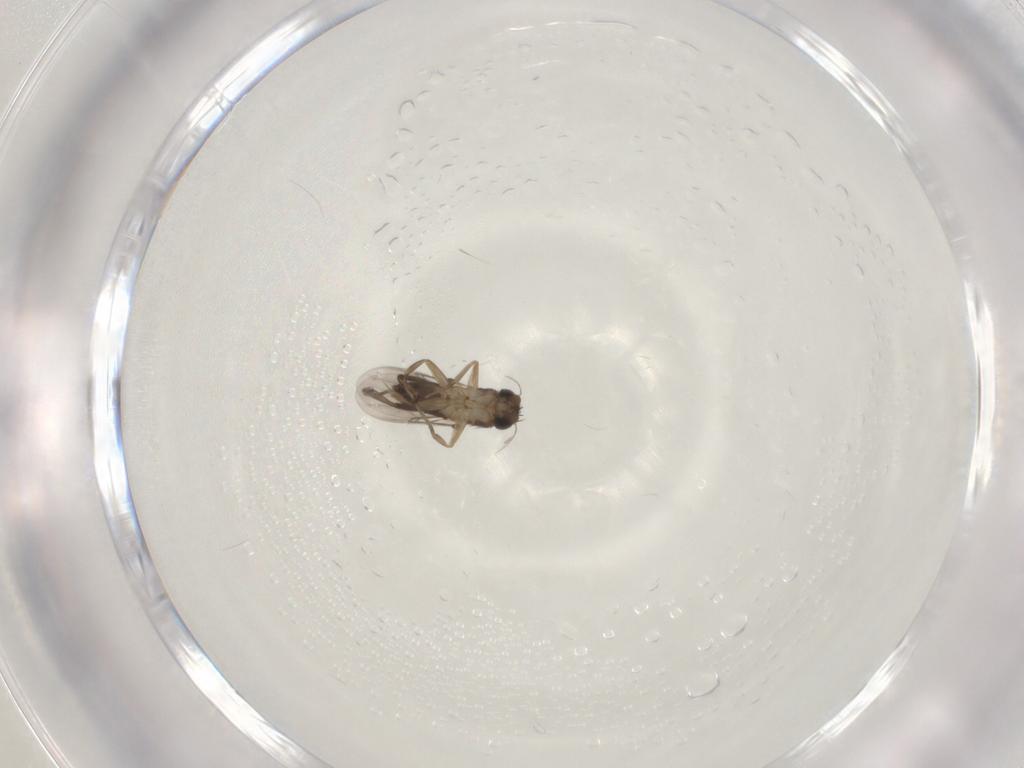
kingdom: Animalia
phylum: Arthropoda
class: Insecta
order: Diptera
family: Phoridae
